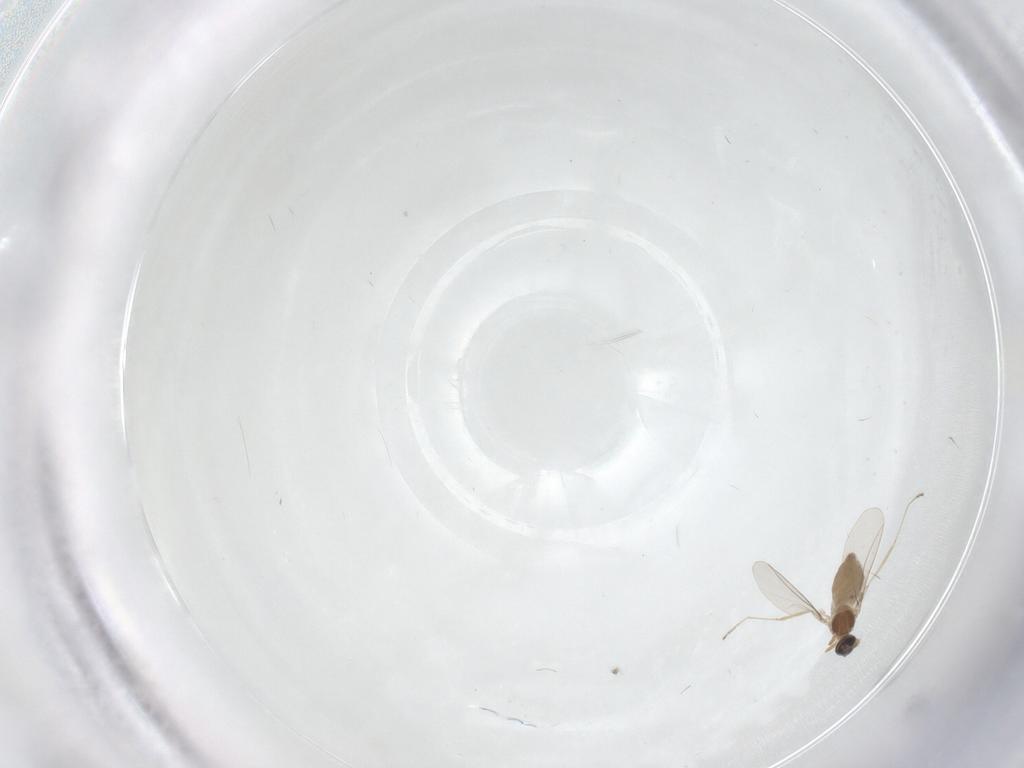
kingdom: Animalia
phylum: Arthropoda
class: Insecta
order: Diptera
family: Cecidomyiidae
